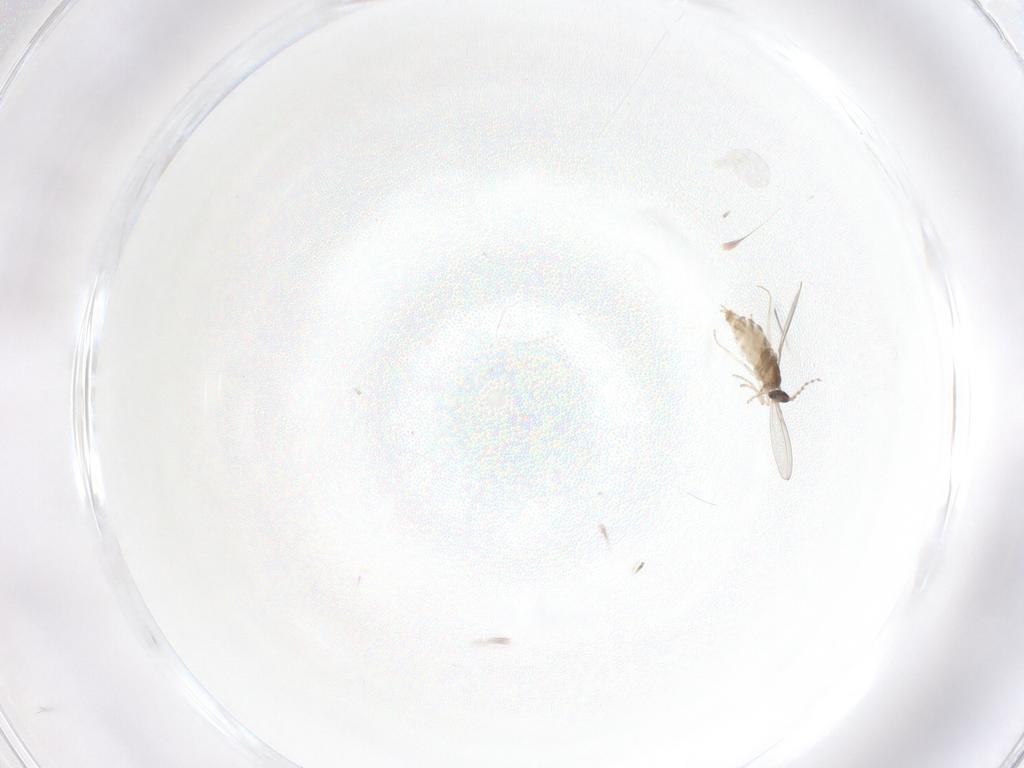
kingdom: Animalia
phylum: Arthropoda
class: Insecta
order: Diptera
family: Cecidomyiidae
